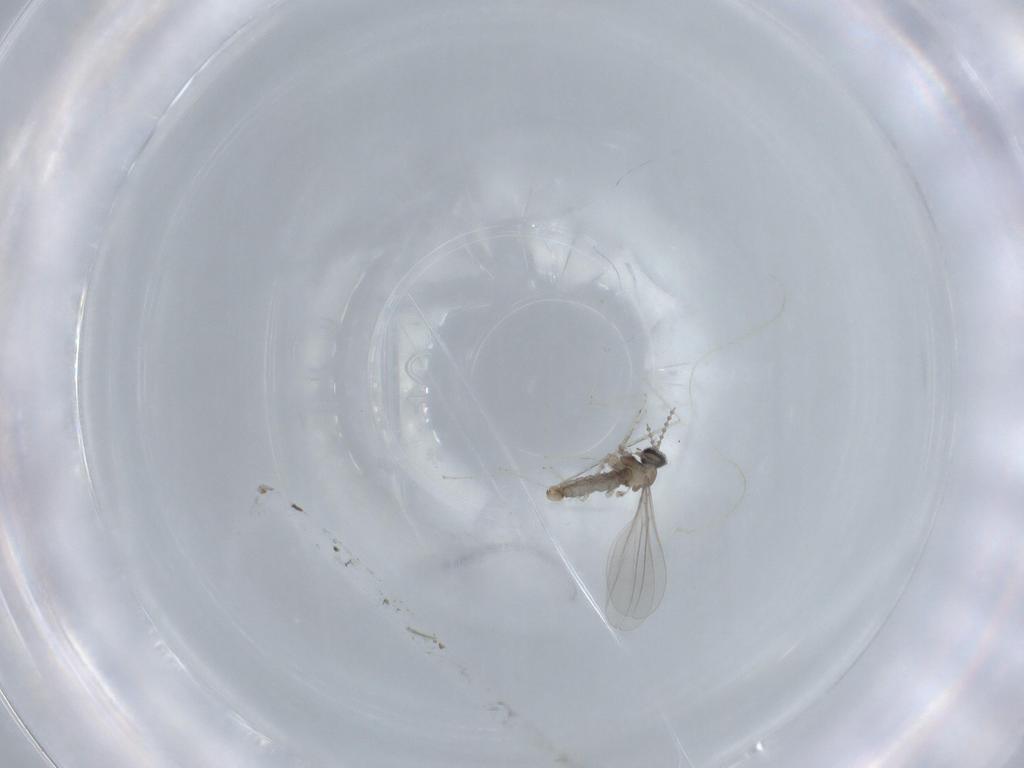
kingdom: Animalia
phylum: Arthropoda
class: Insecta
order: Diptera
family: Cecidomyiidae
